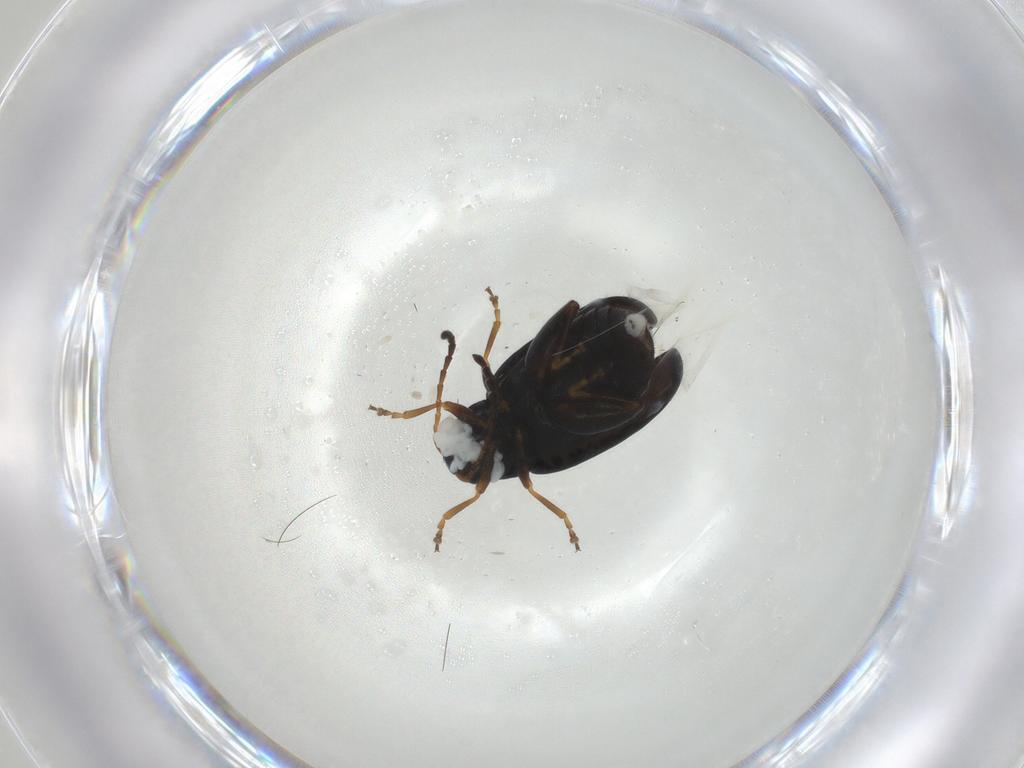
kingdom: Animalia
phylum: Arthropoda
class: Insecta
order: Coleoptera
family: Chrysomelidae
